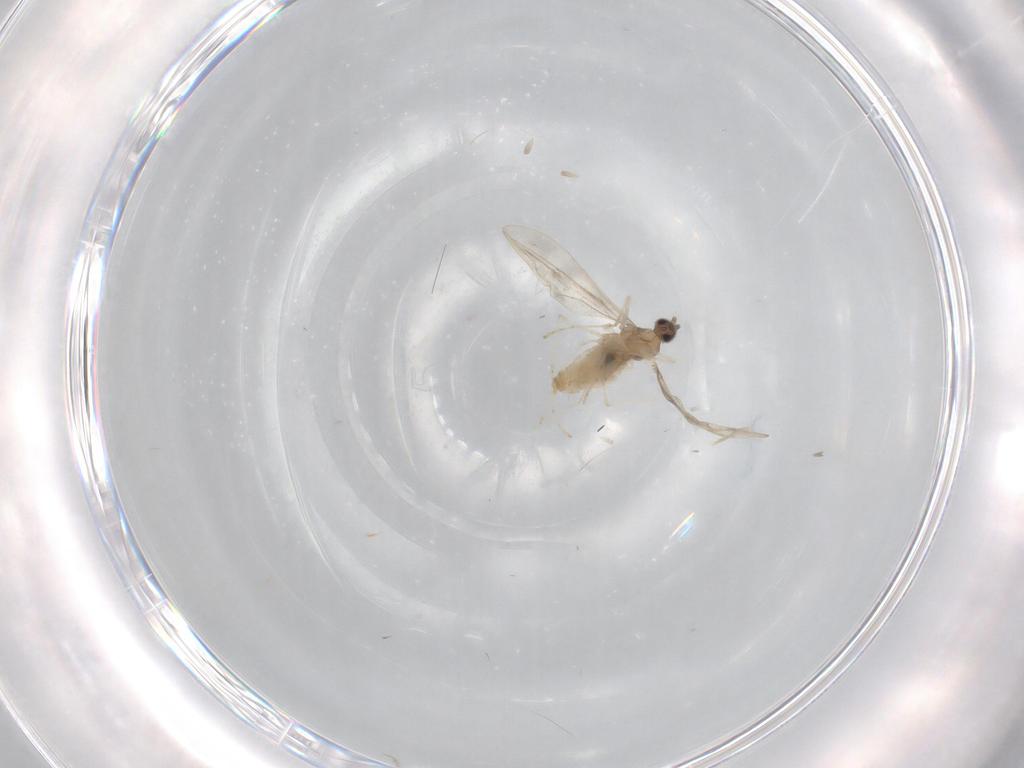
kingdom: Animalia
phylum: Arthropoda
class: Insecta
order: Diptera
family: Cecidomyiidae
